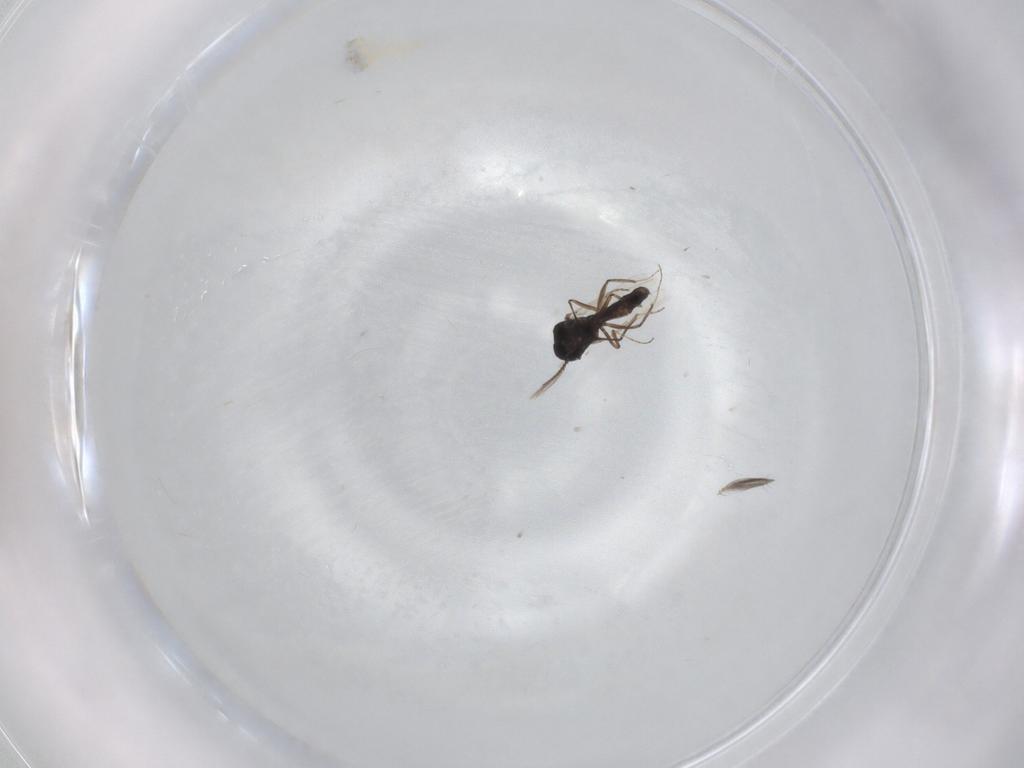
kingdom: Animalia
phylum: Arthropoda
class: Insecta
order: Diptera
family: Ceratopogonidae
